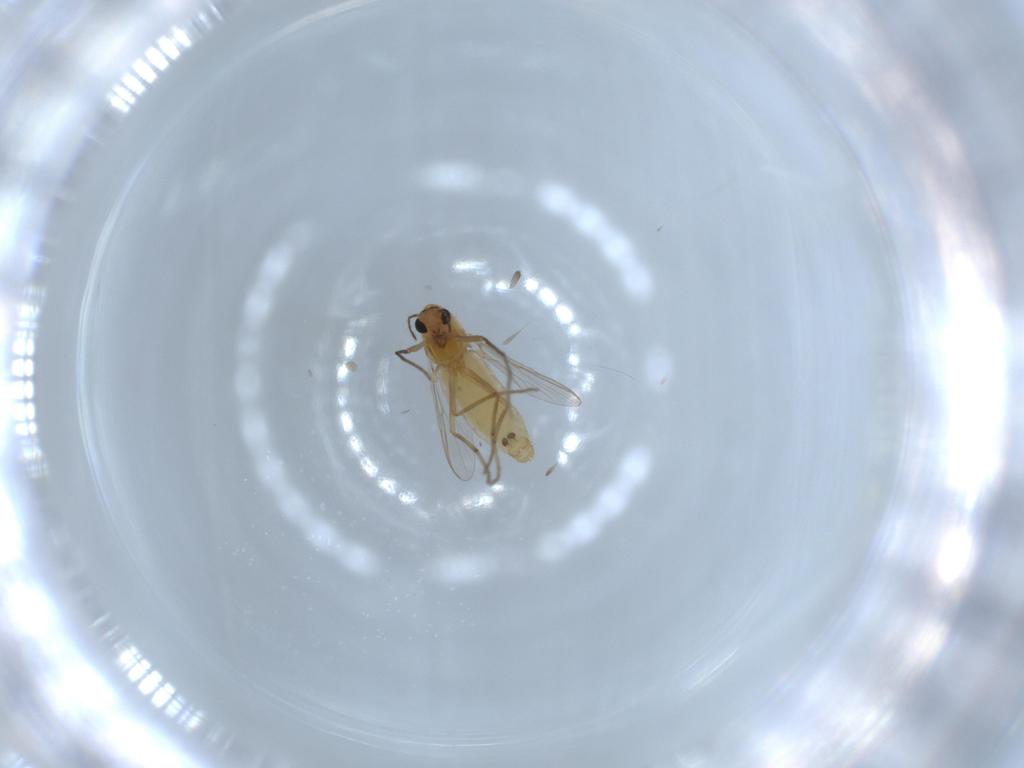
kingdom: Animalia
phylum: Arthropoda
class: Insecta
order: Diptera
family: Chironomidae
